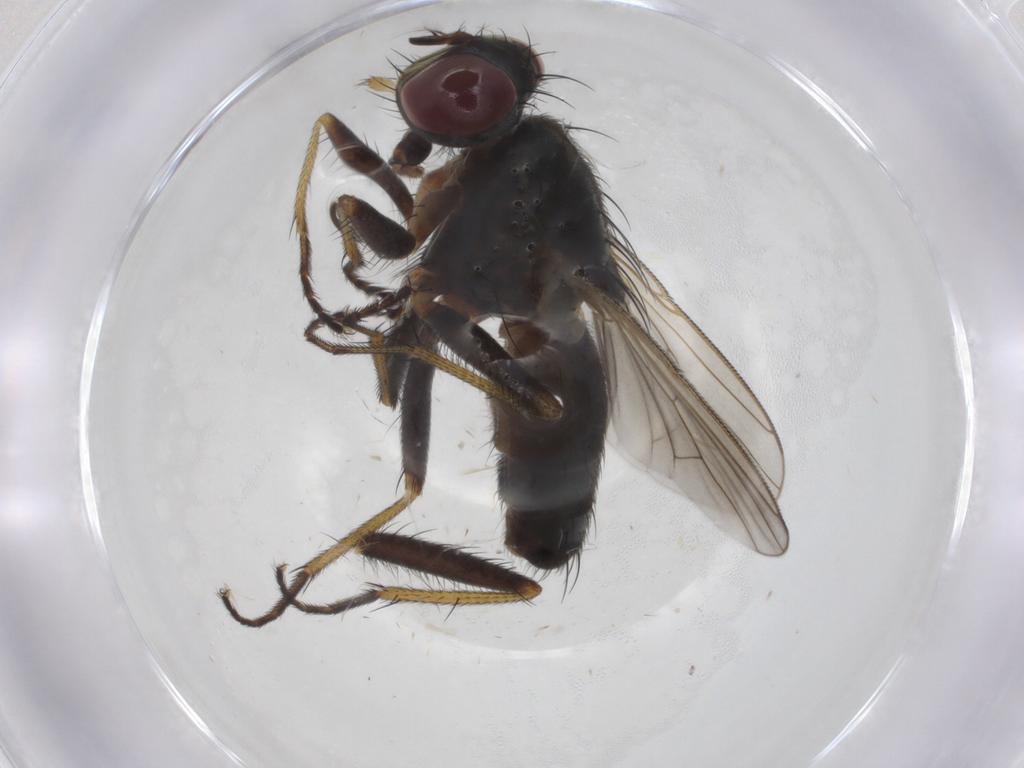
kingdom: Animalia
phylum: Arthropoda
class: Insecta
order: Diptera
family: Muscidae
